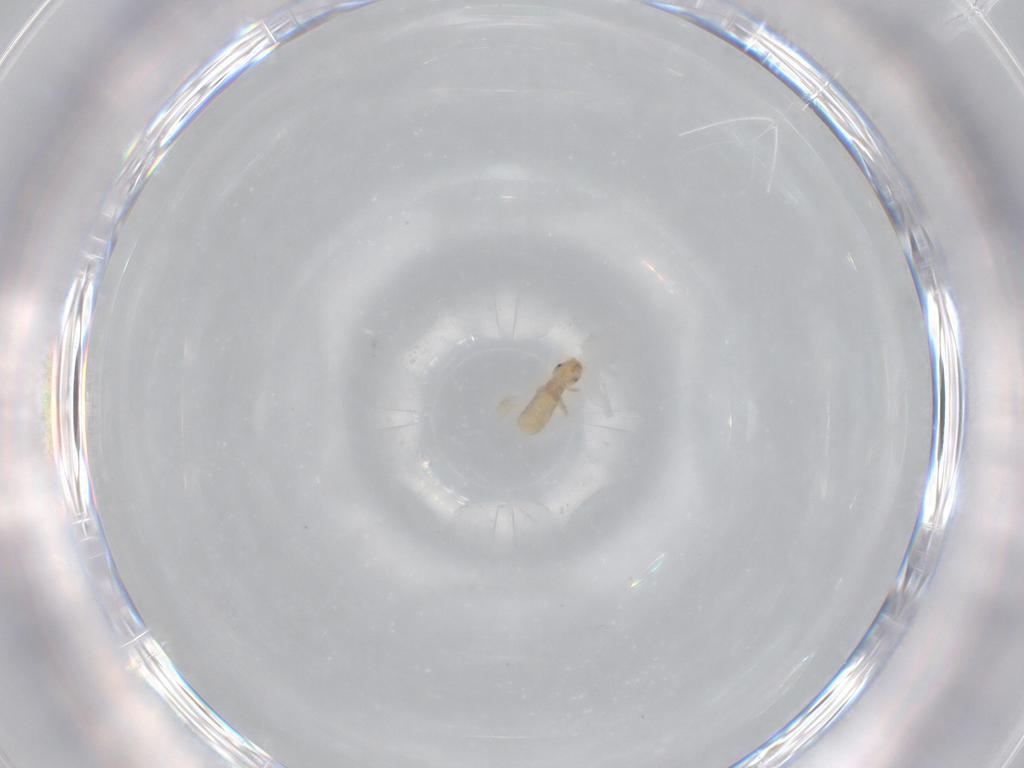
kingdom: Animalia
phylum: Arthropoda
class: Insecta
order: Psocodea
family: Liposcelididae
